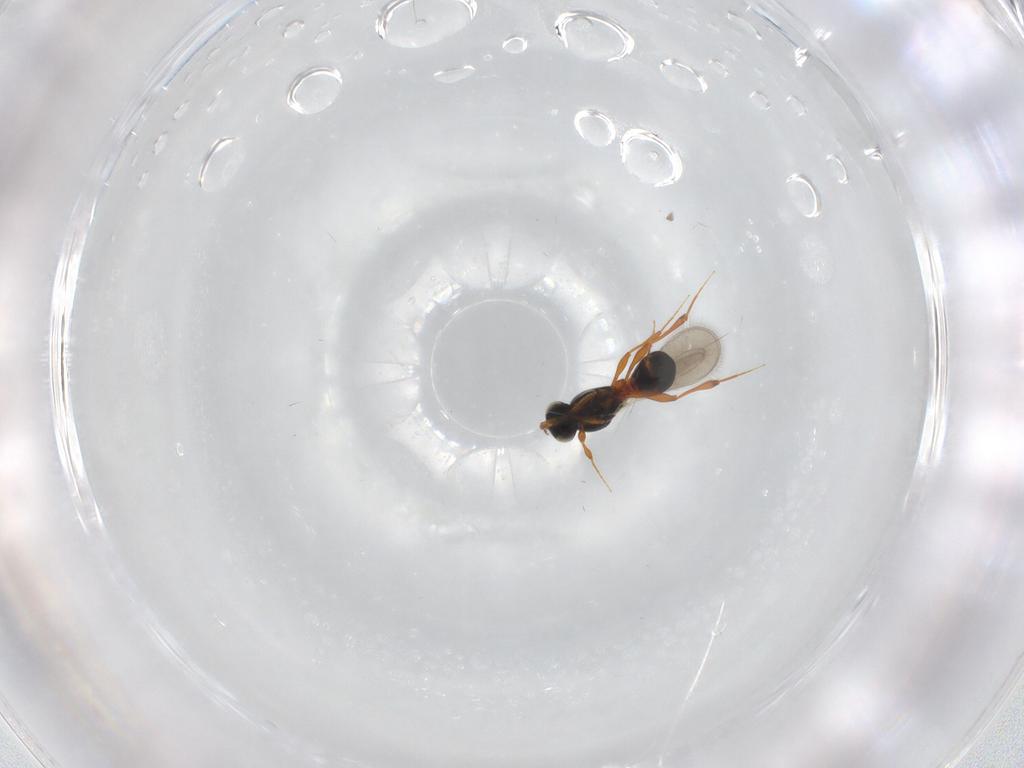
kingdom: Animalia
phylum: Arthropoda
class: Insecta
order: Hymenoptera
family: Platygastridae
